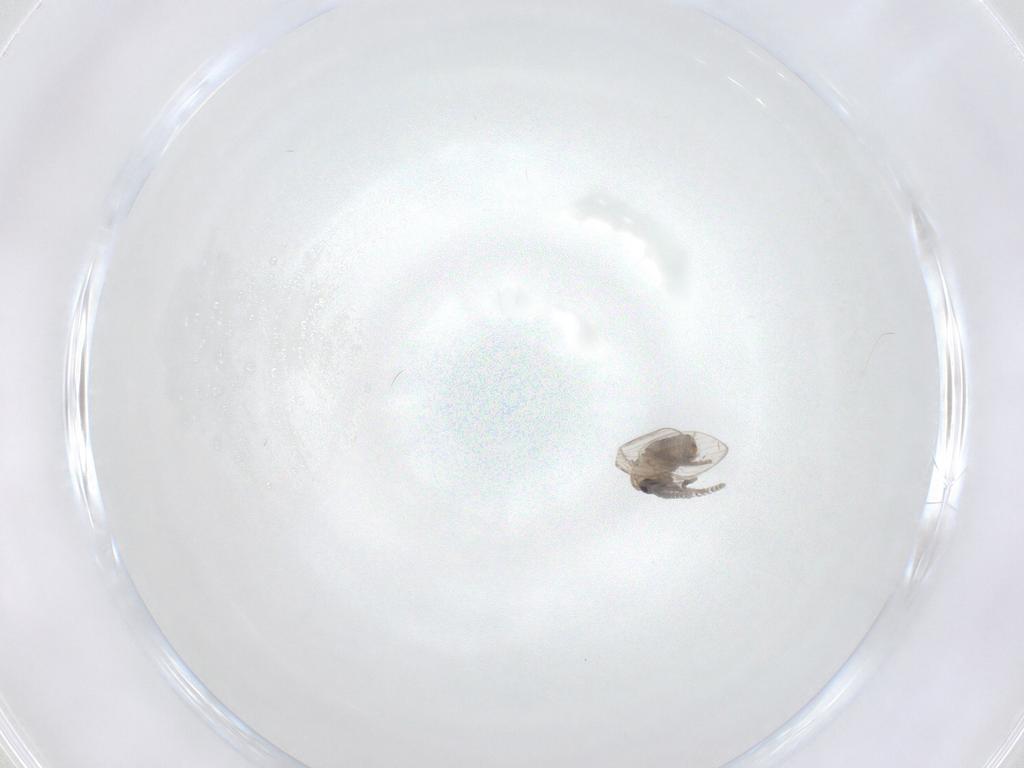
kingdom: Animalia
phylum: Arthropoda
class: Insecta
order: Diptera
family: Psychodidae
